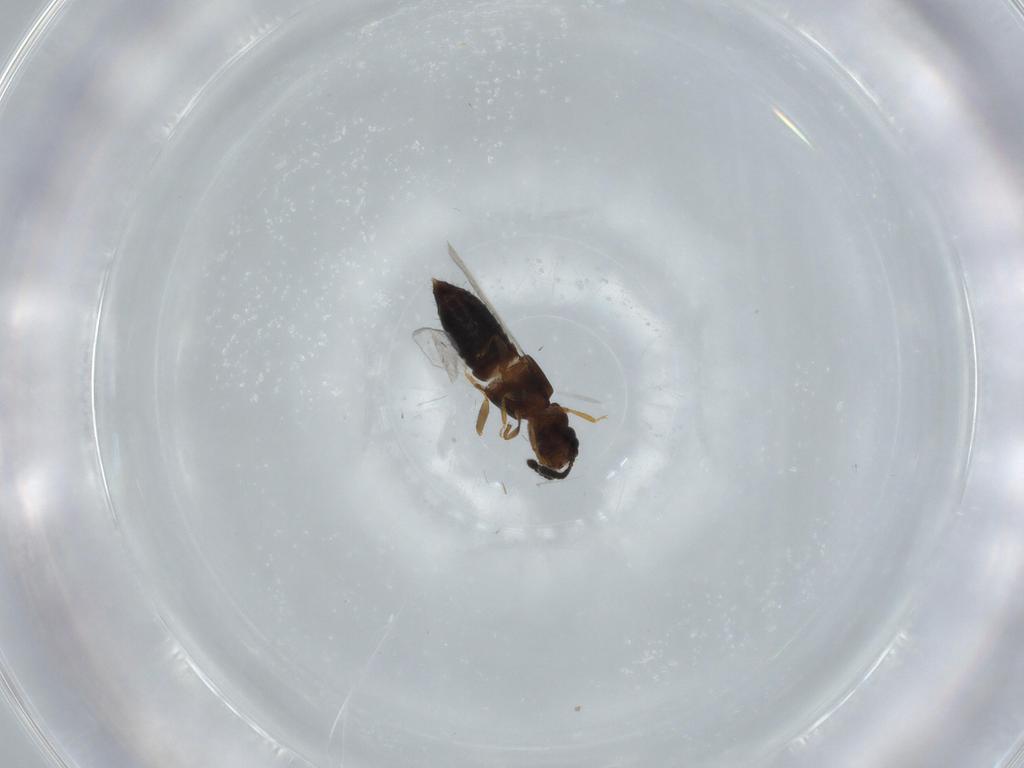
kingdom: Animalia
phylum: Arthropoda
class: Insecta
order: Coleoptera
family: Staphylinidae
